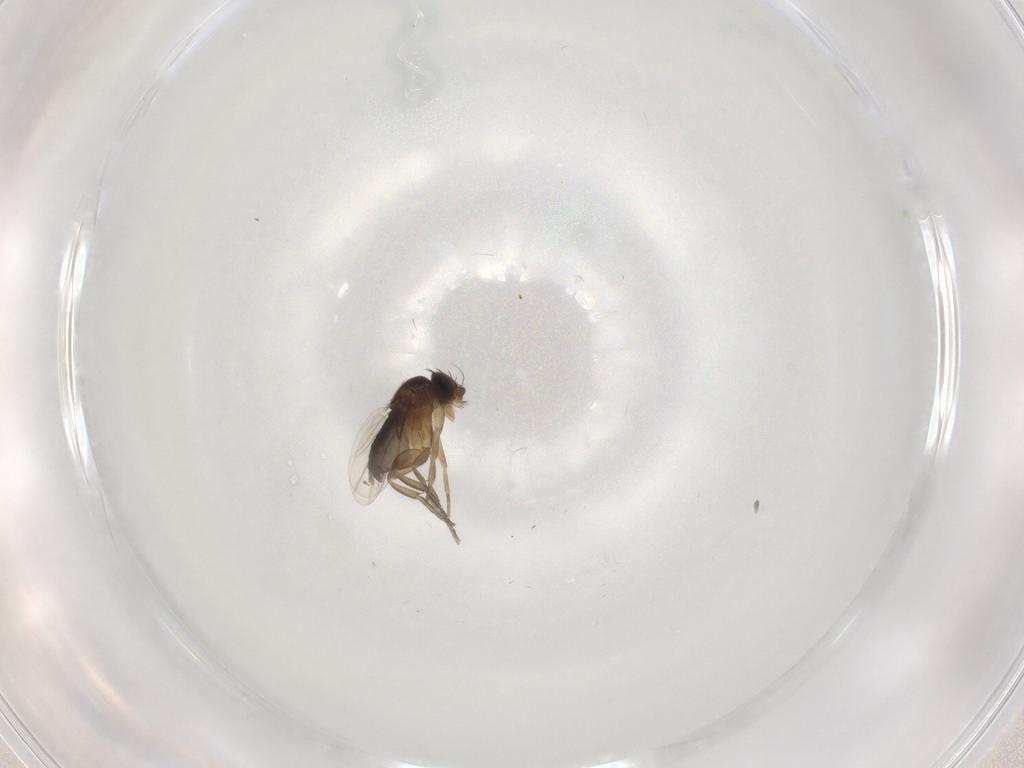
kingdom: Animalia
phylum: Arthropoda
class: Insecta
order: Diptera
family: Phoridae
